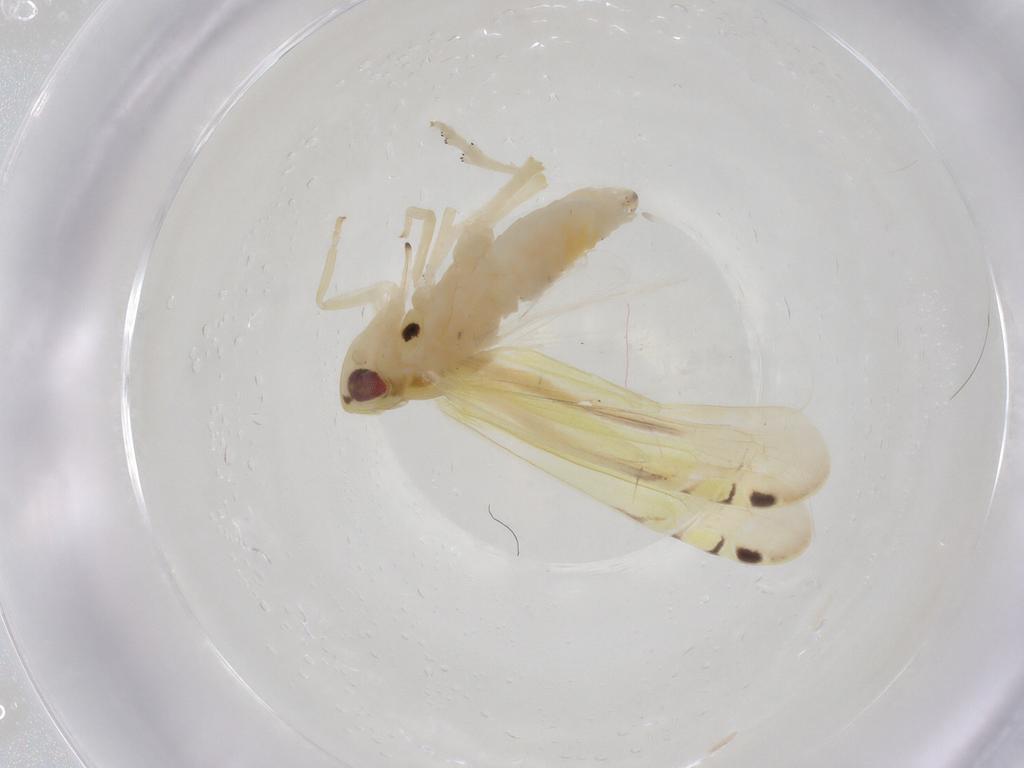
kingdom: Animalia
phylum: Arthropoda
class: Insecta
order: Hemiptera
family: Achilidae
